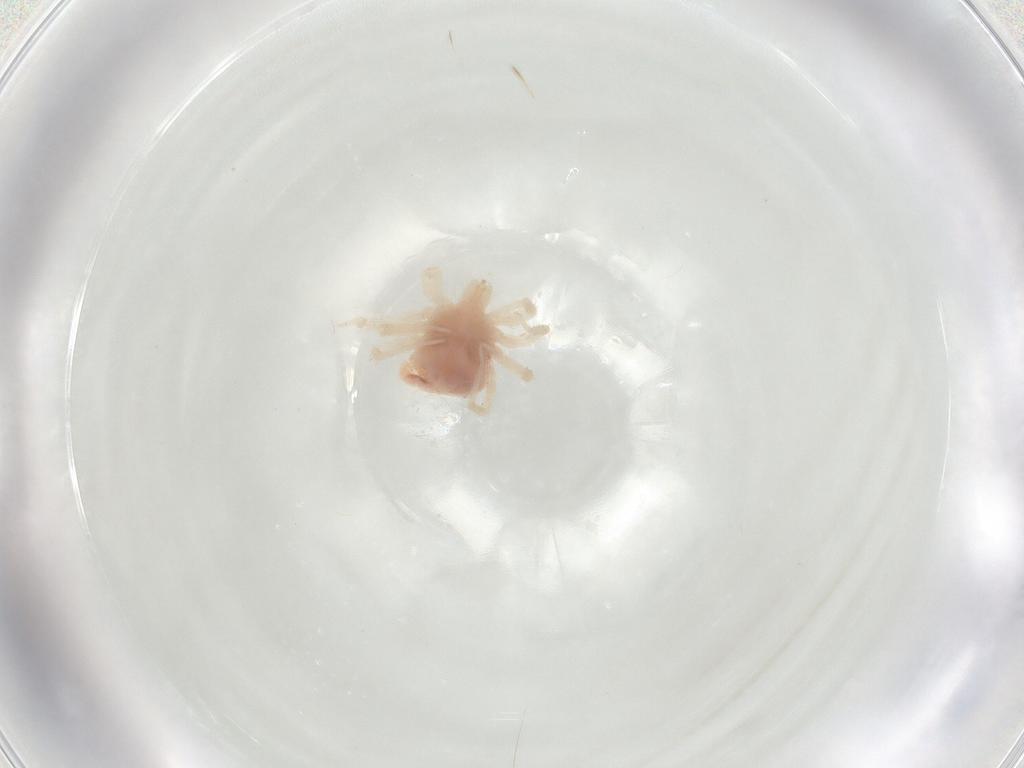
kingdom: Animalia
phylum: Arthropoda
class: Arachnida
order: Trombidiformes
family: Anystidae
